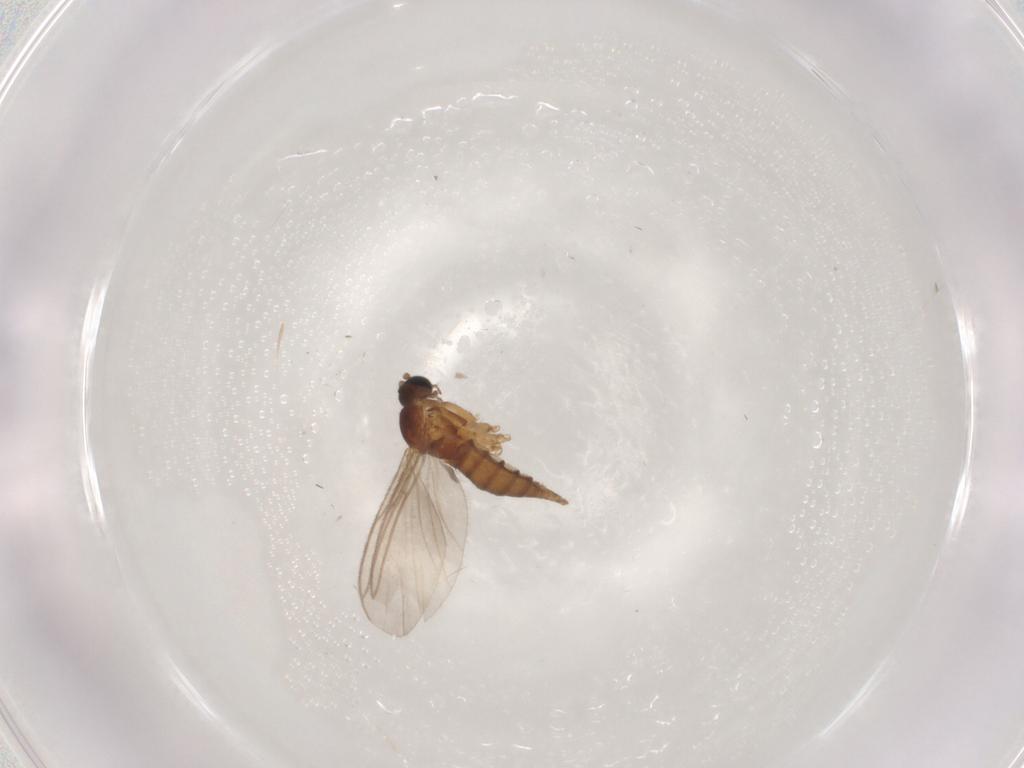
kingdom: Animalia
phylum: Arthropoda
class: Insecta
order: Diptera
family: Sciaridae
